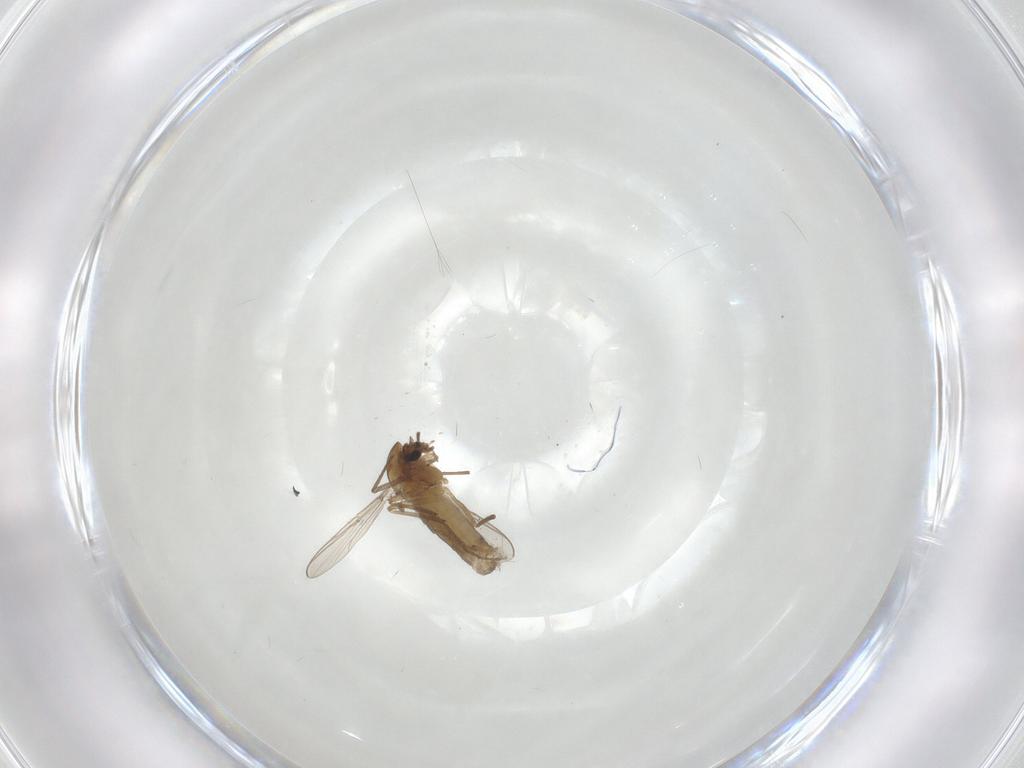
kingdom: Animalia
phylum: Arthropoda
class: Insecta
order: Diptera
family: Chironomidae
